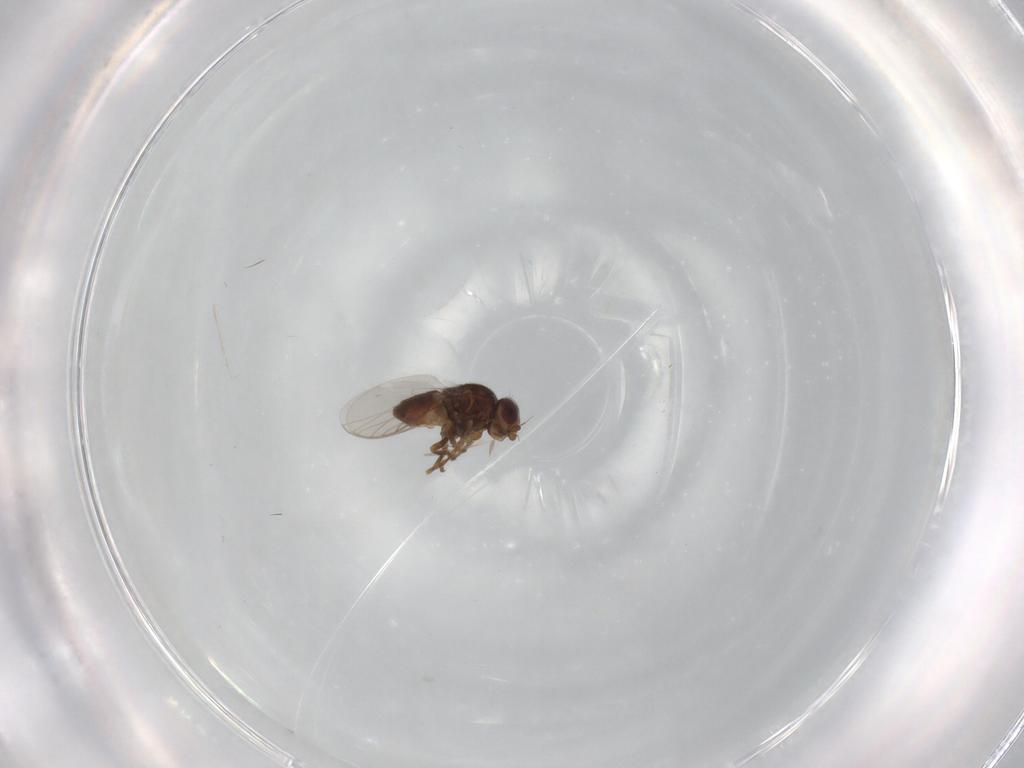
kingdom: Animalia
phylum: Arthropoda
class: Insecta
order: Diptera
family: Chloropidae
